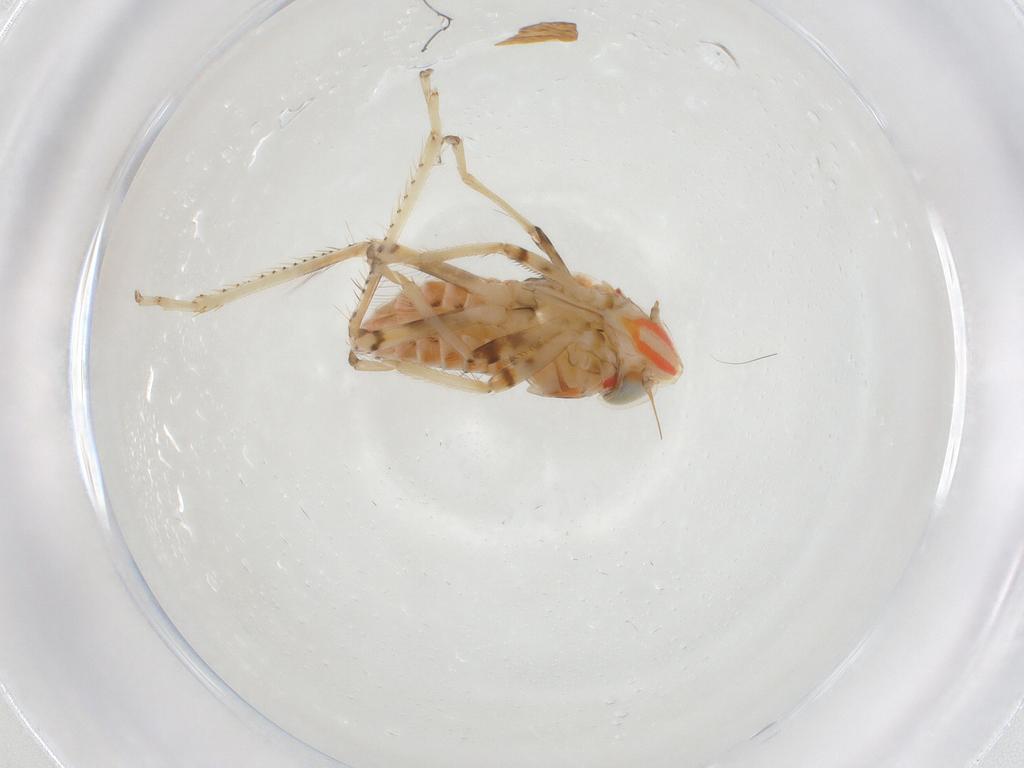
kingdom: Animalia
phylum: Arthropoda
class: Insecta
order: Hemiptera
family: Cicadellidae
